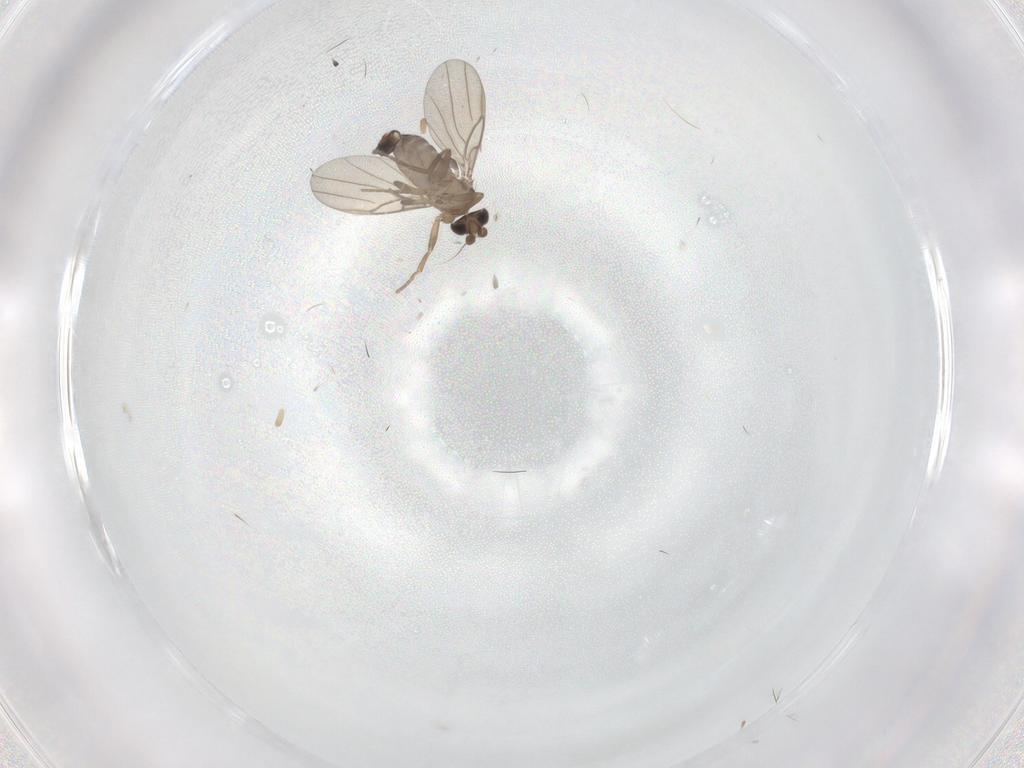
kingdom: Animalia
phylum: Arthropoda
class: Insecta
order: Diptera
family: Phoridae
